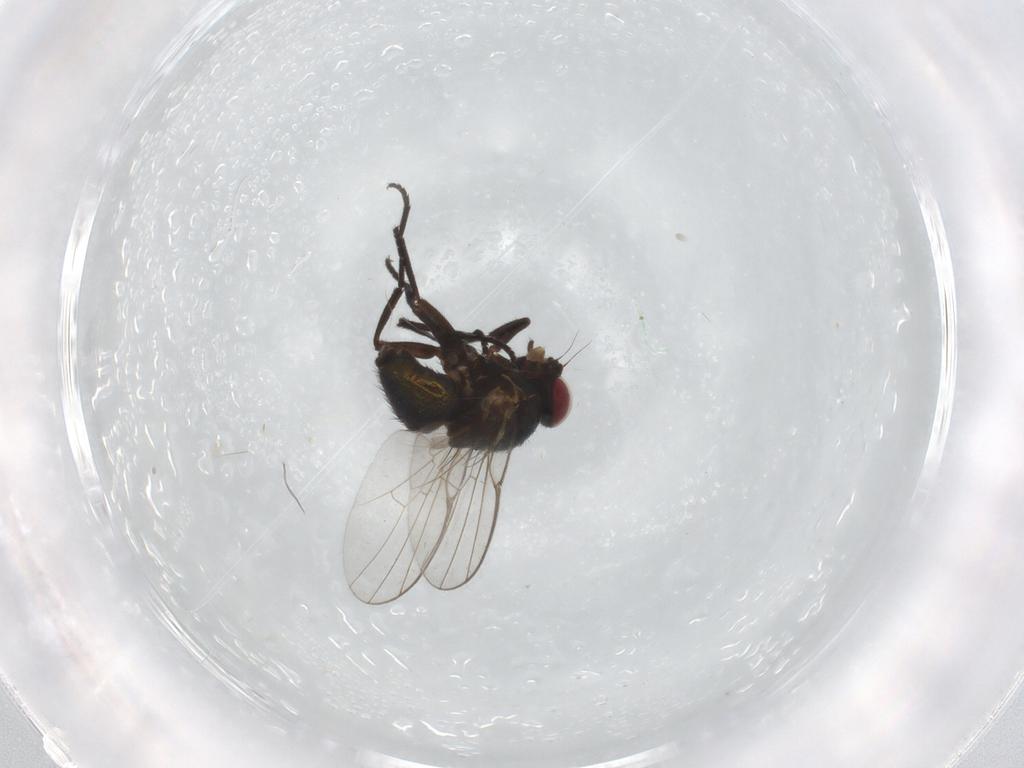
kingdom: Animalia
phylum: Arthropoda
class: Insecta
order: Diptera
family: Agromyzidae
